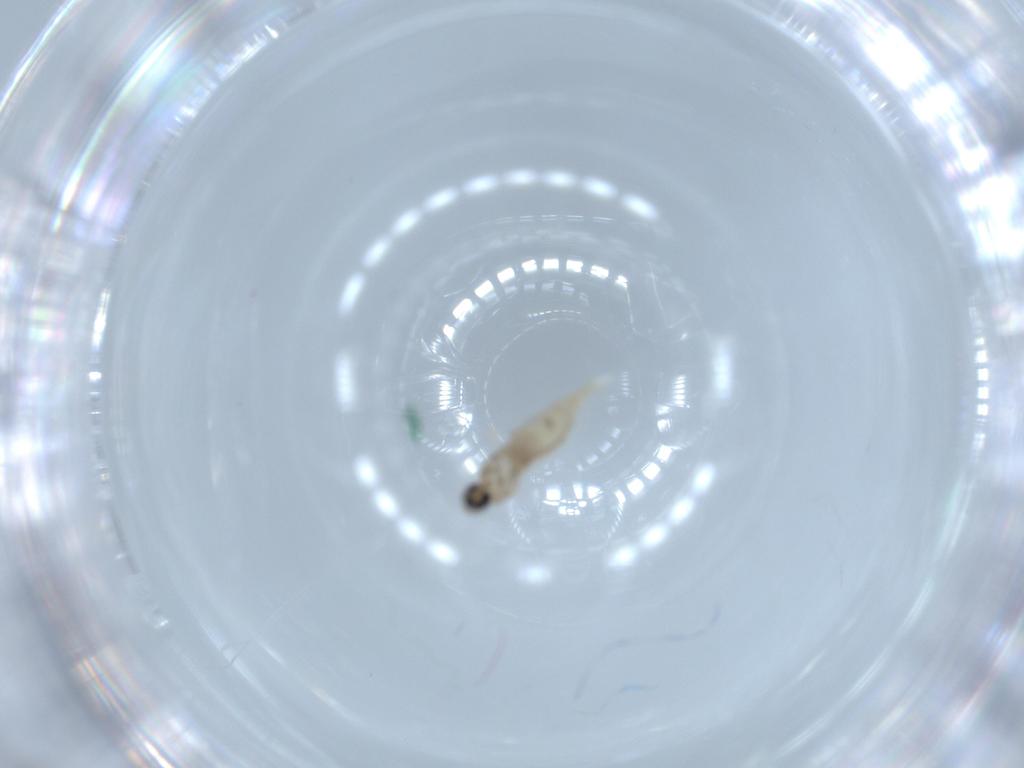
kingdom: Animalia
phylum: Arthropoda
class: Insecta
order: Diptera
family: Cecidomyiidae
